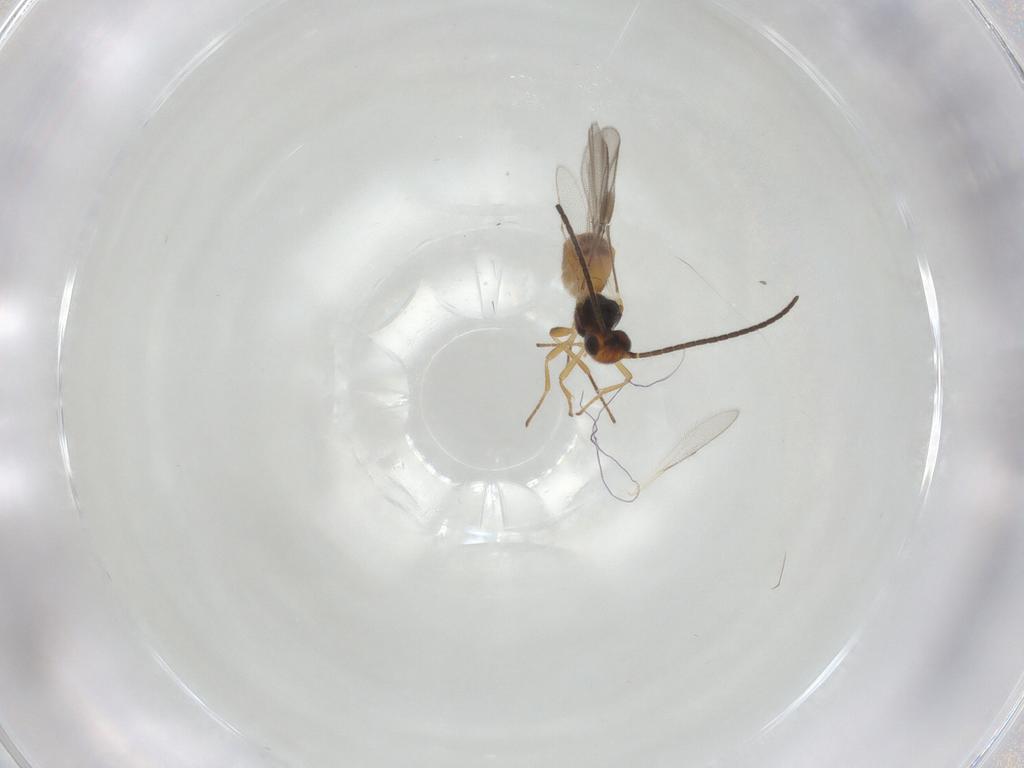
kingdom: Animalia
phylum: Arthropoda
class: Insecta
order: Hymenoptera
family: Braconidae
